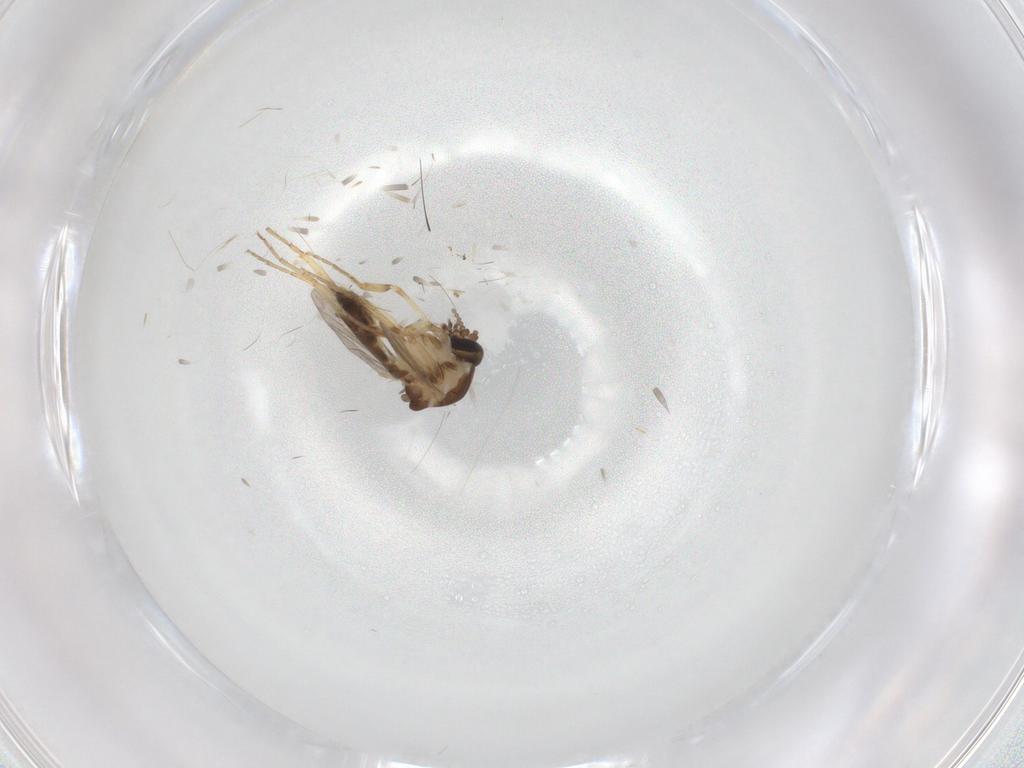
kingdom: Animalia
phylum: Arthropoda
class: Insecta
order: Diptera
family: Ceratopogonidae
